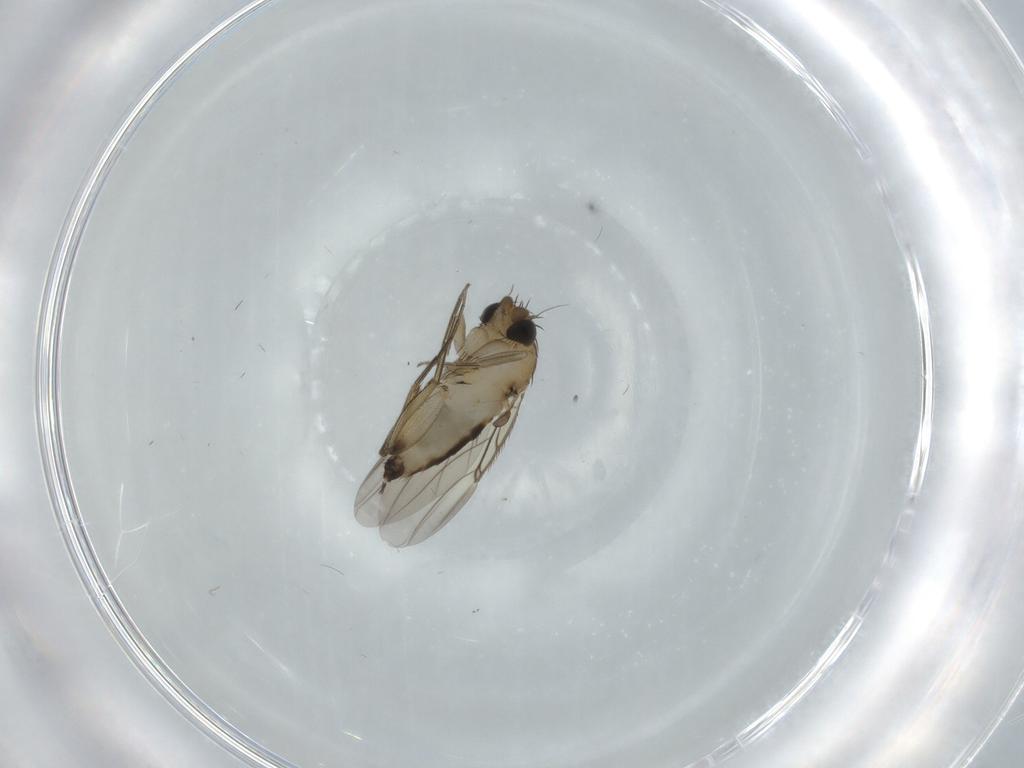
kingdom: Animalia
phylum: Arthropoda
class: Insecta
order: Diptera
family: Phoridae
